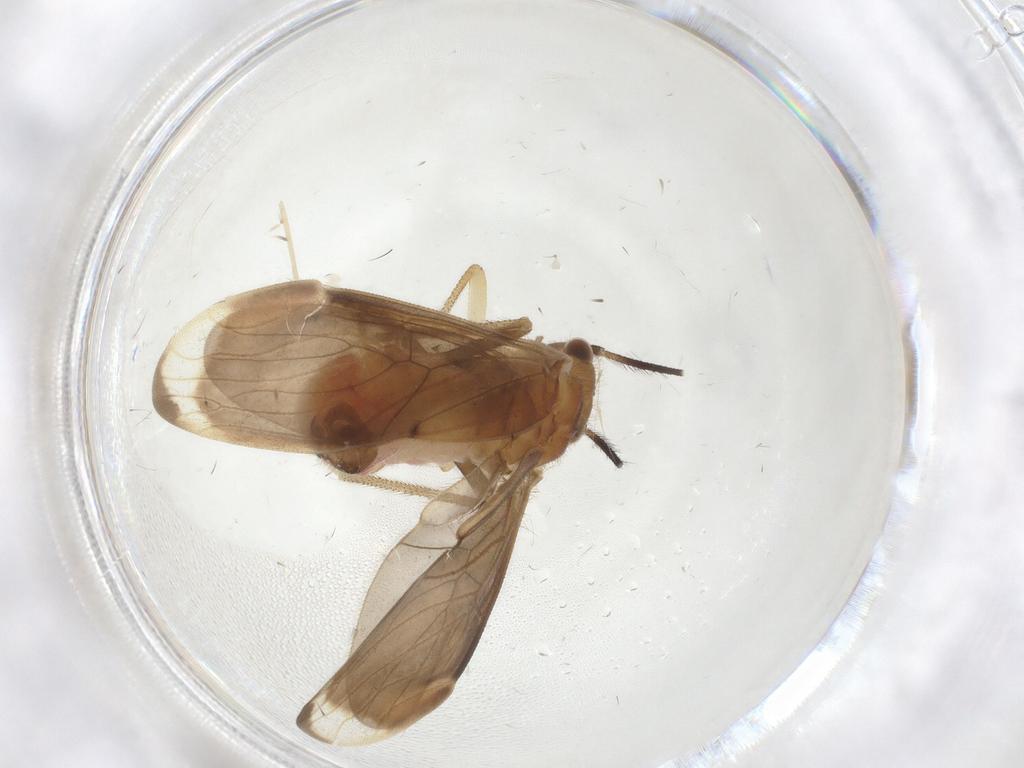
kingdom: Animalia
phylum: Arthropoda
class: Insecta
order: Psocodea
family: Amphipsocidae
